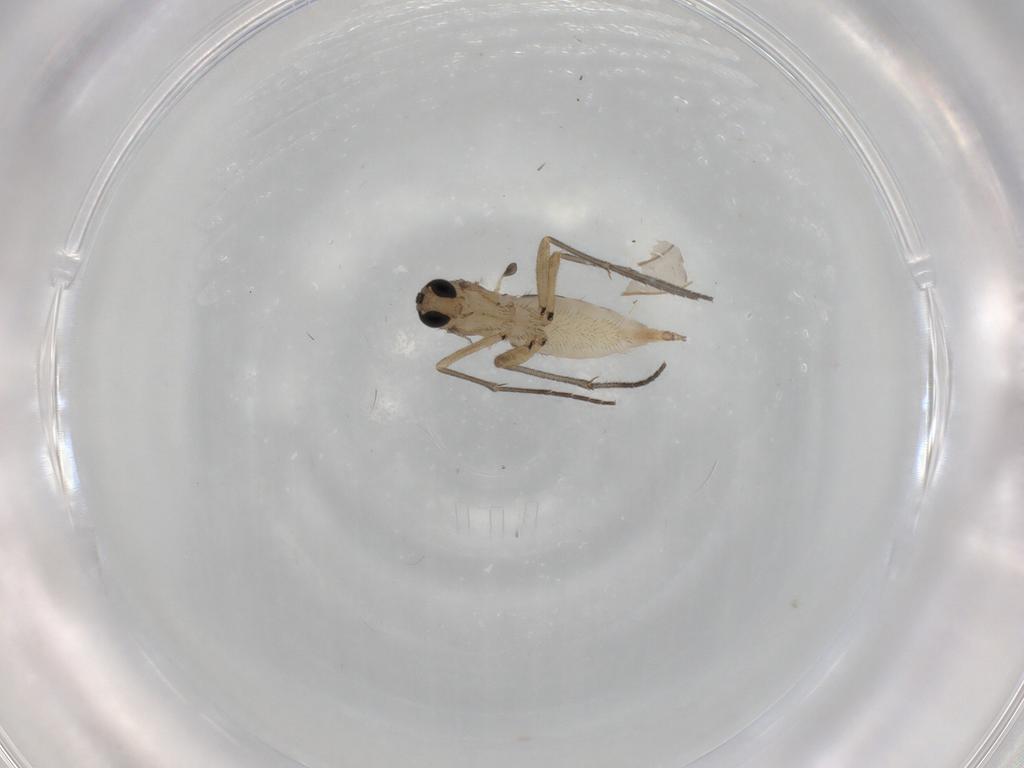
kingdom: Animalia
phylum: Arthropoda
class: Insecta
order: Diptera
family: Sciaridae
